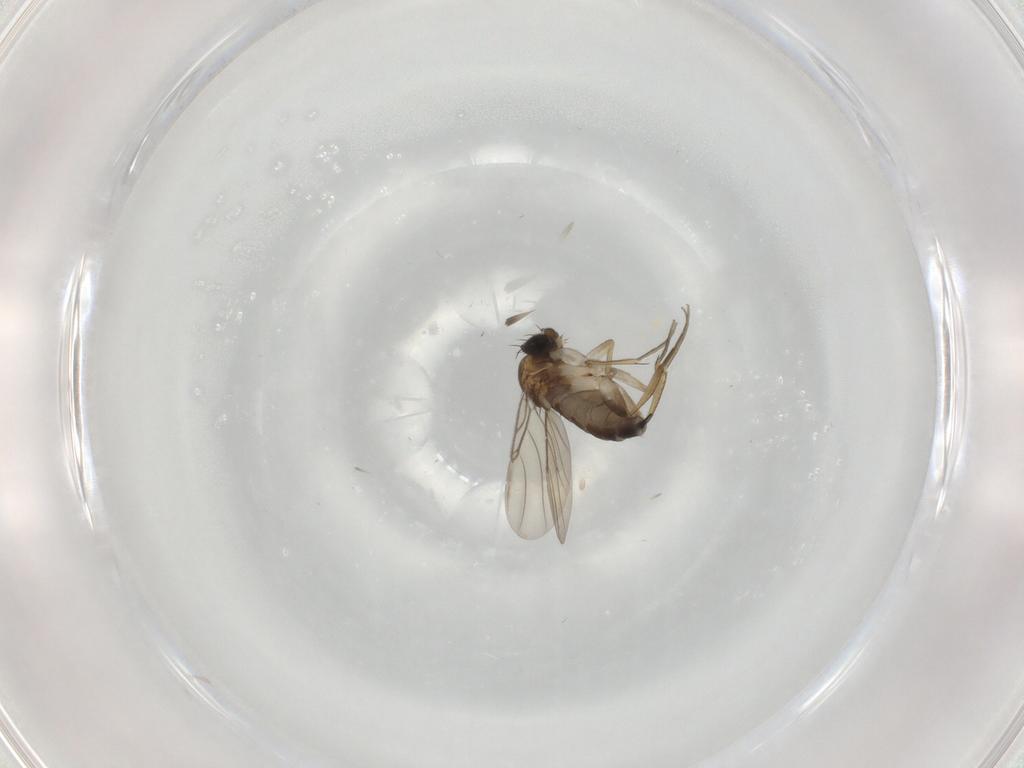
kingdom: Animalia
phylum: Arthropoda
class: Insecta
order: Diptera
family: Phoridae
